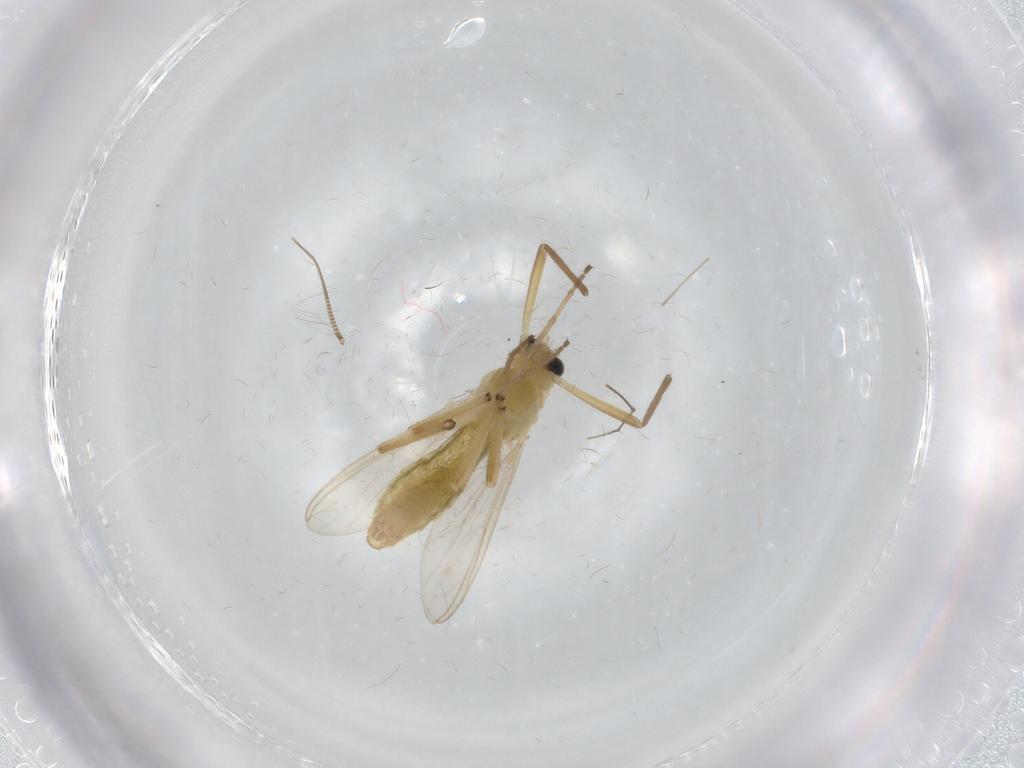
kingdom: Animalia
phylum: Arthropoda
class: Insecta
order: Diptera
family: Chironomidae
